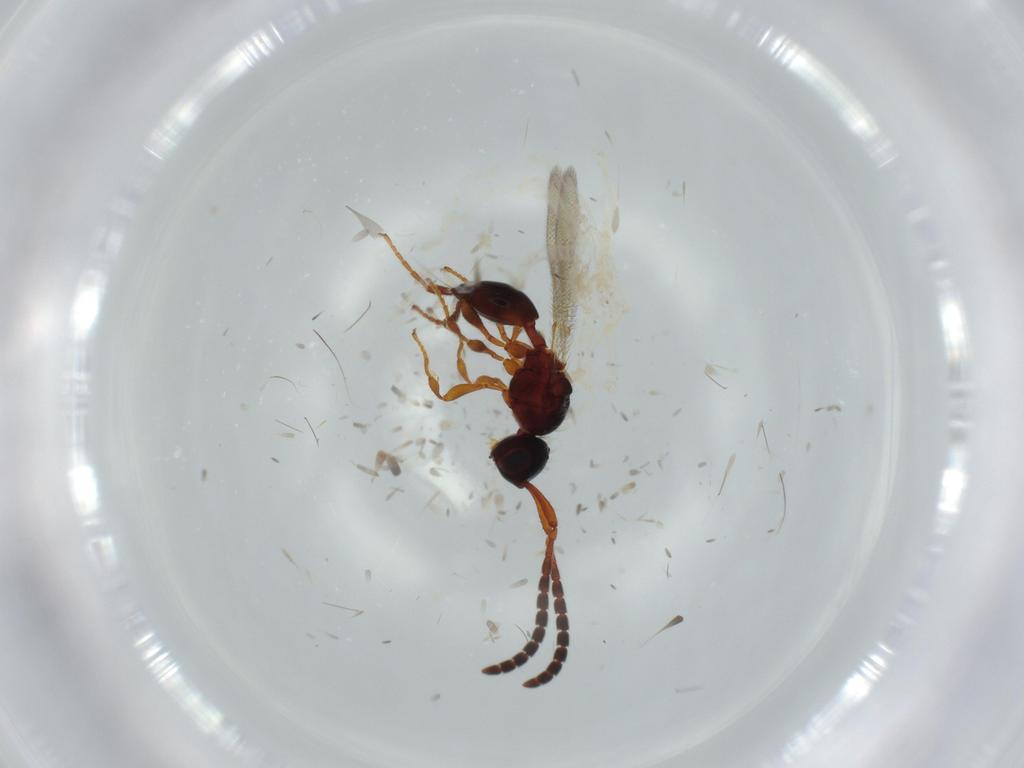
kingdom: Animalia
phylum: Arthropoda
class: Insecta
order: Hymenoptera
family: Diapriidae
